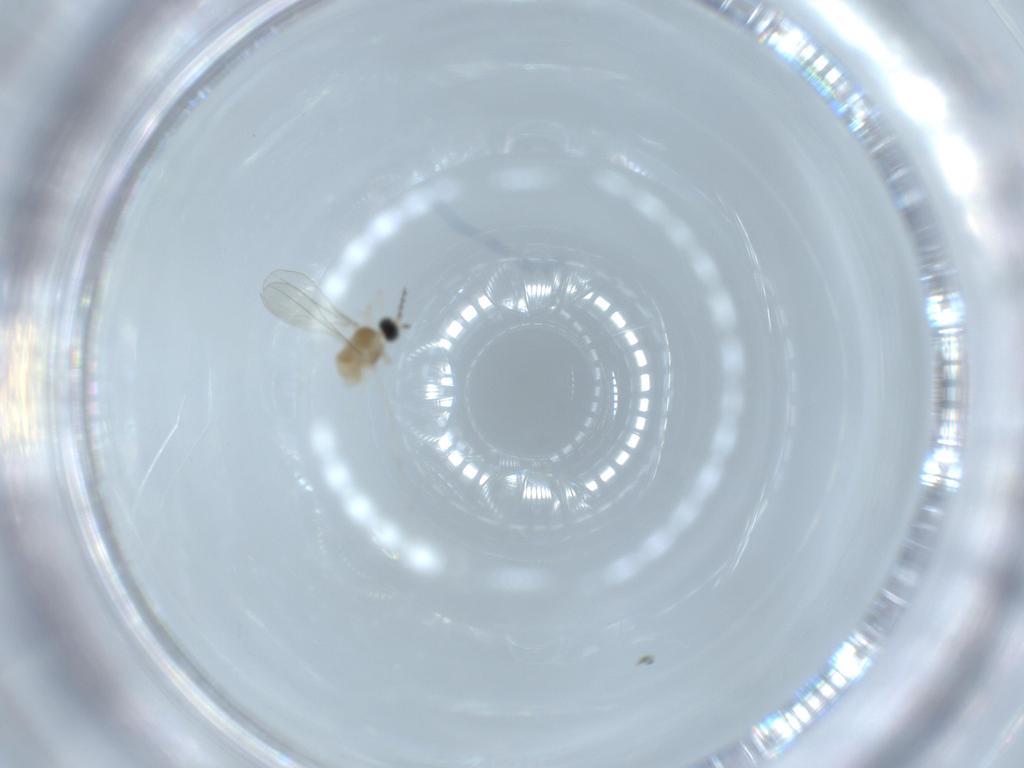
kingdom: Animalia
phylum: Arthropoda
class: Insecta
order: Diptera
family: Cecidomyiidae
